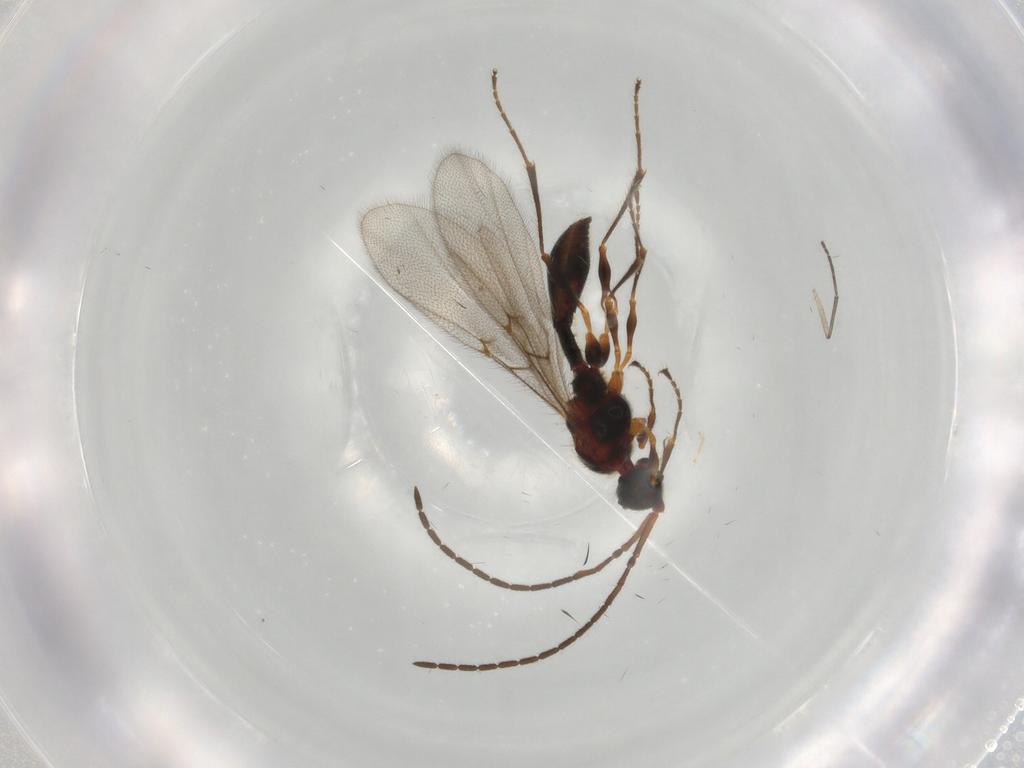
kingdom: Animalia
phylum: Arthropoda
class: Insecta
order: Hymenoptera
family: Diapriidae
